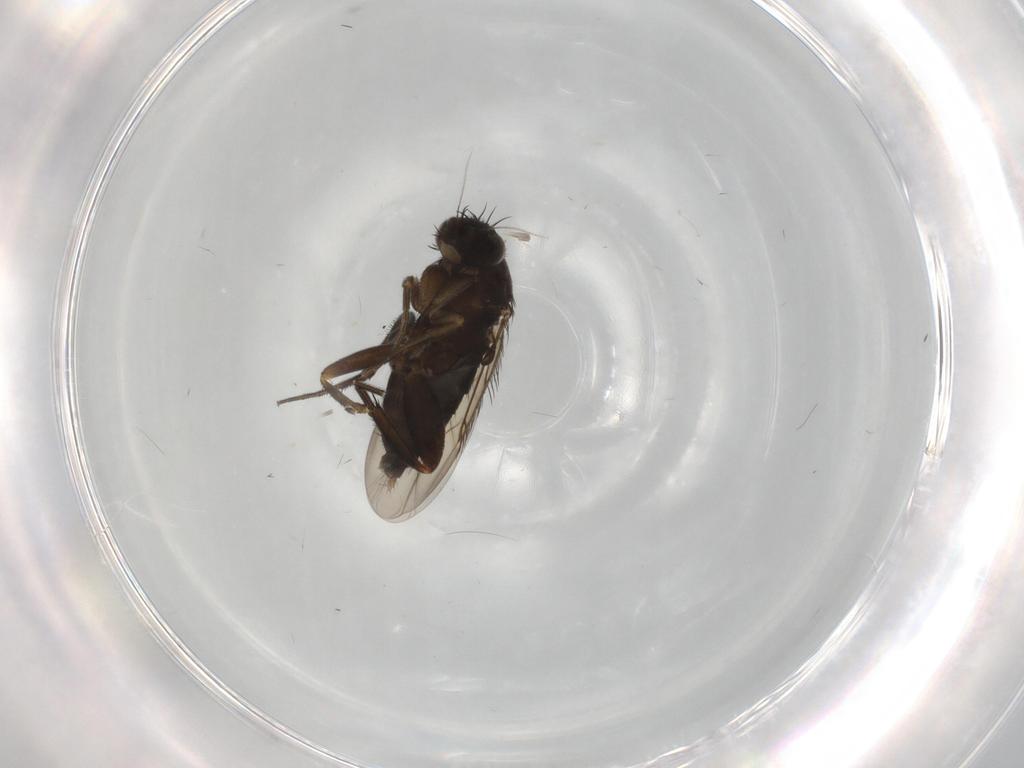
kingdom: Animalia
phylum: Arthropoda
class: Insecta
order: Diptera
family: Phoridae
